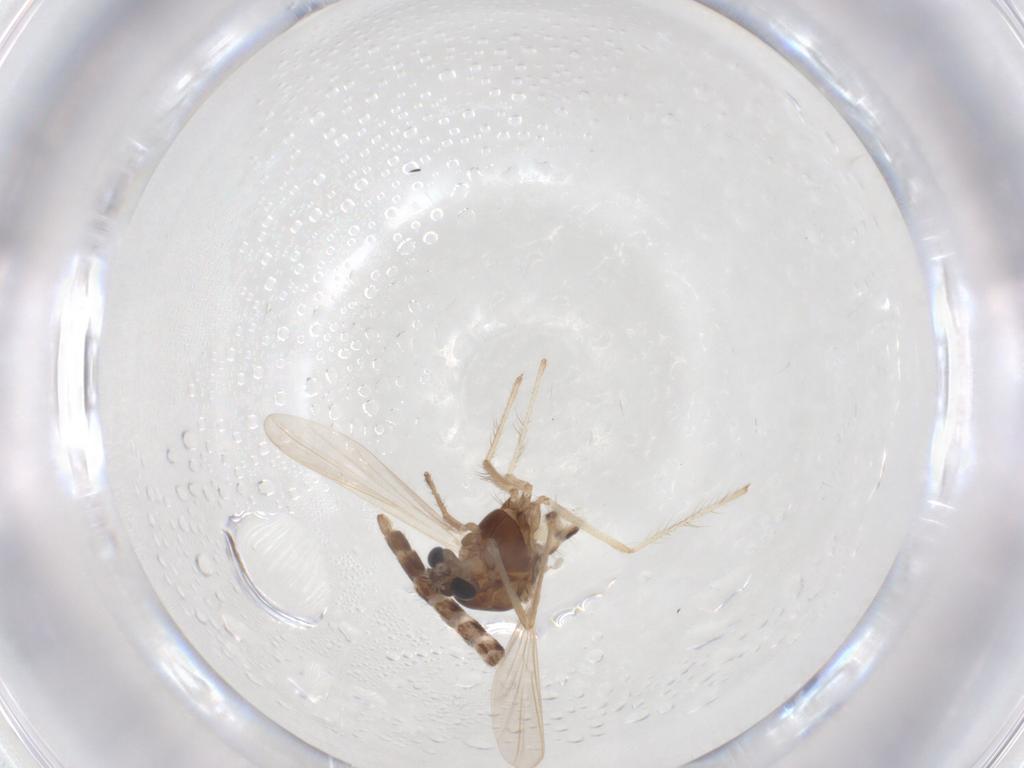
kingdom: Animalia
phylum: Arthropoda
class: Insecta
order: Diptera
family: Chironomidae
